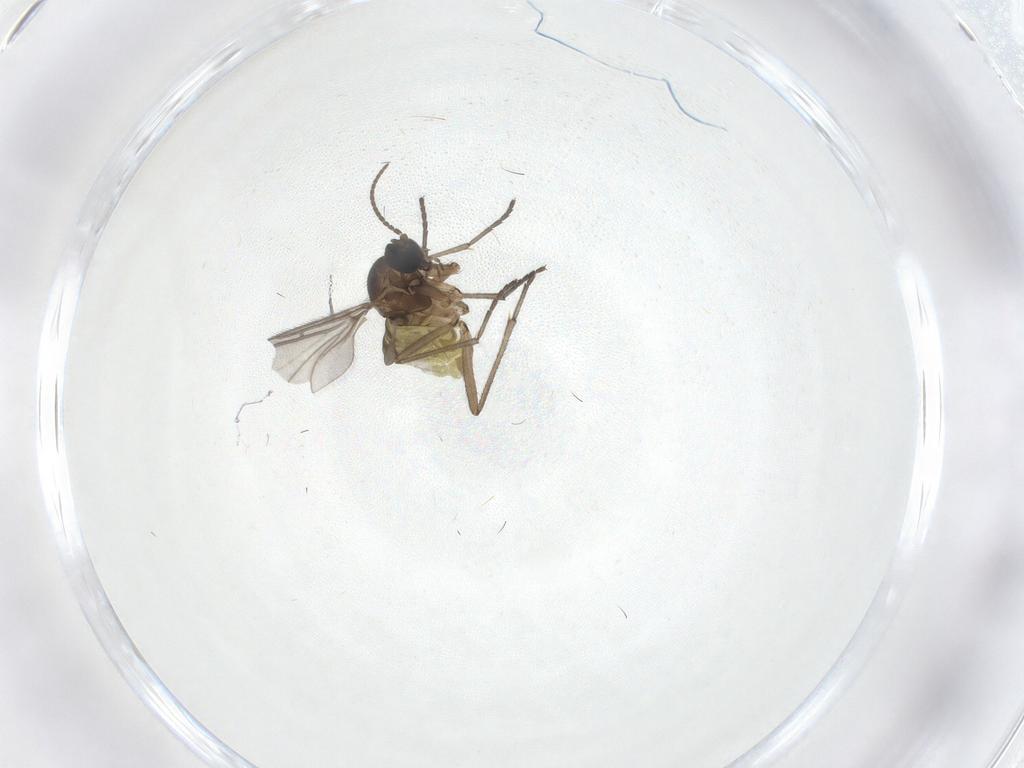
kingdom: Animalia
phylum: Arthropoda
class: Insecta
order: Diptera
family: Sciaridae
